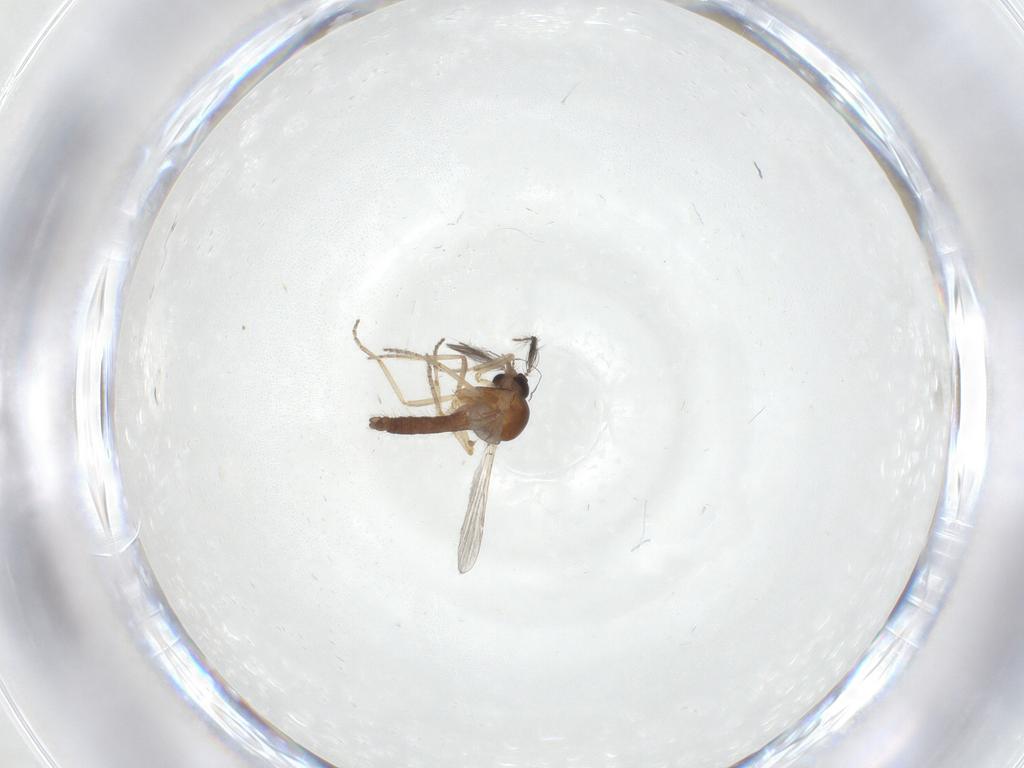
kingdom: Animalia
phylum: Arthropoda
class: Insecta
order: Diptera
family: Ceratopogonidae
